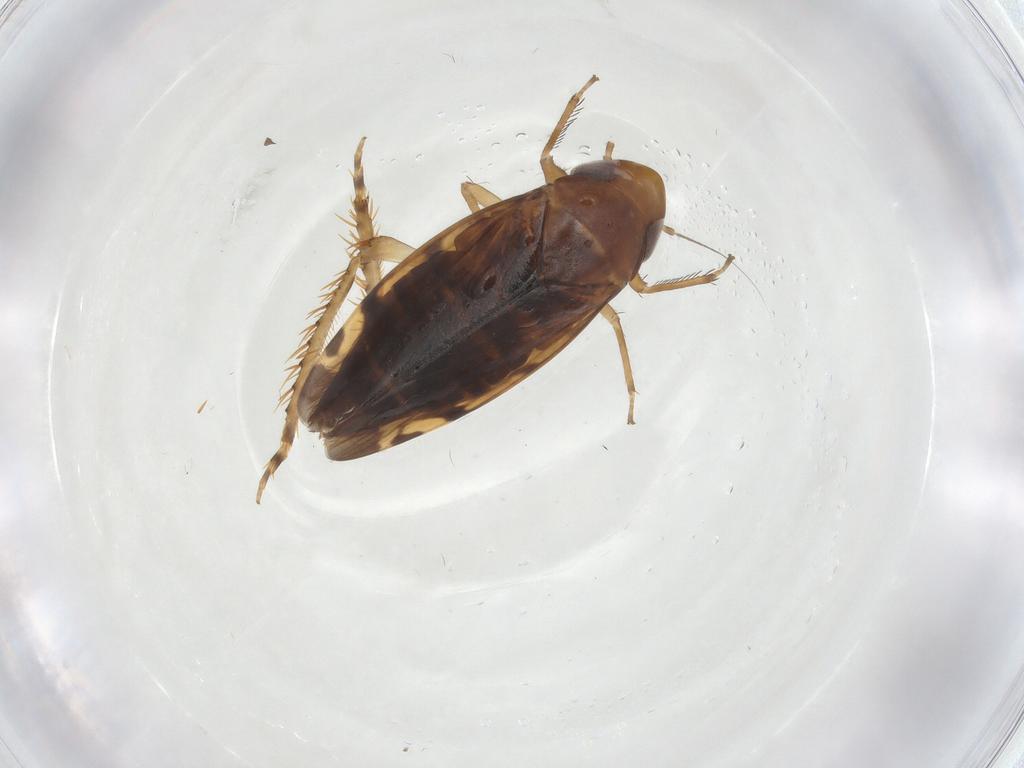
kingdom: Animalia
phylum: Arthropoda
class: Insecta
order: Hemiptera
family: Cicadellidae
